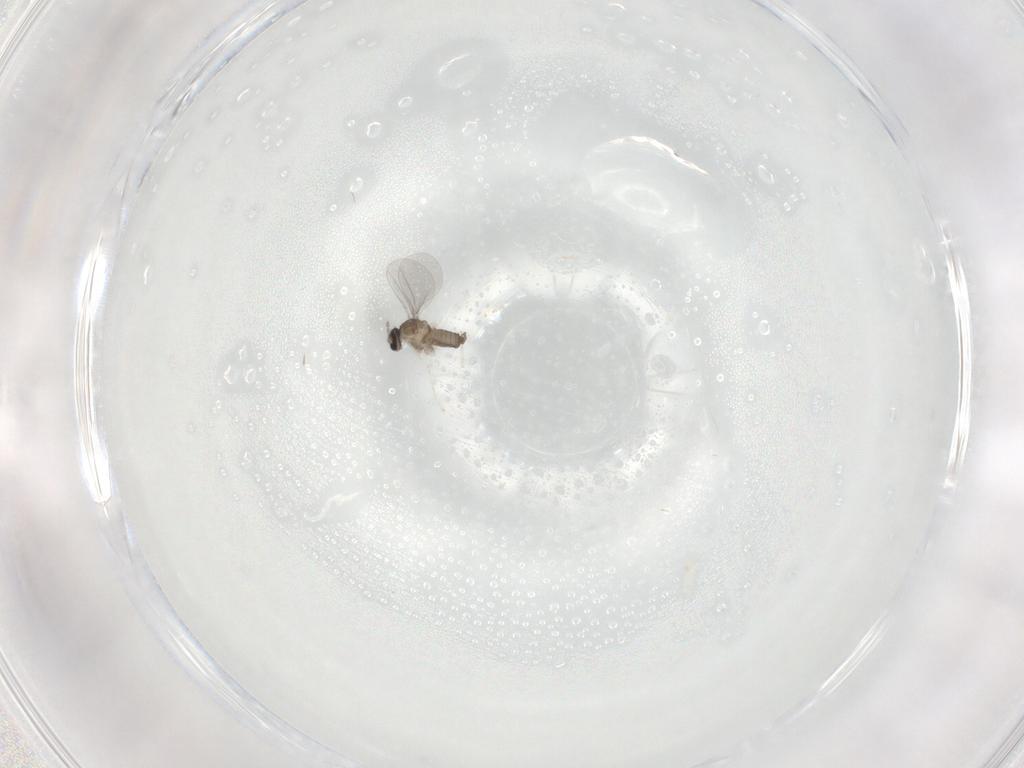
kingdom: Animalia
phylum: Arthropoda
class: Insecta
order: Diptera
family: Cecidomyiidae
